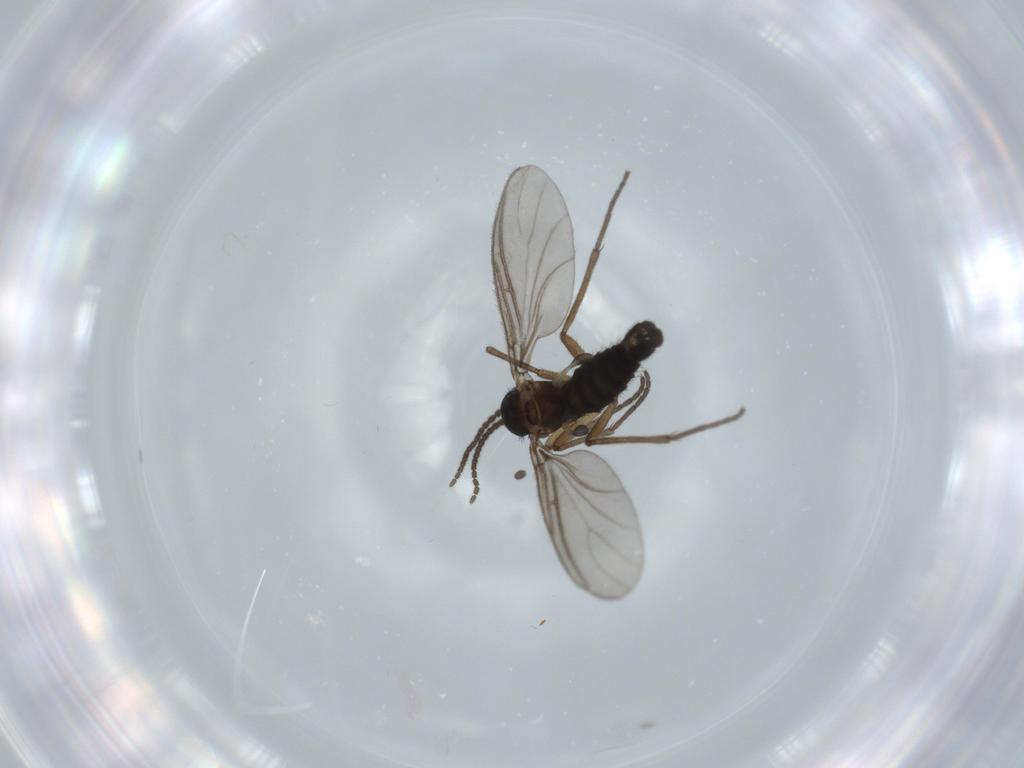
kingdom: Animalia
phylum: Arthropoda
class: Insecta
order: Diptera
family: Sciaridae
